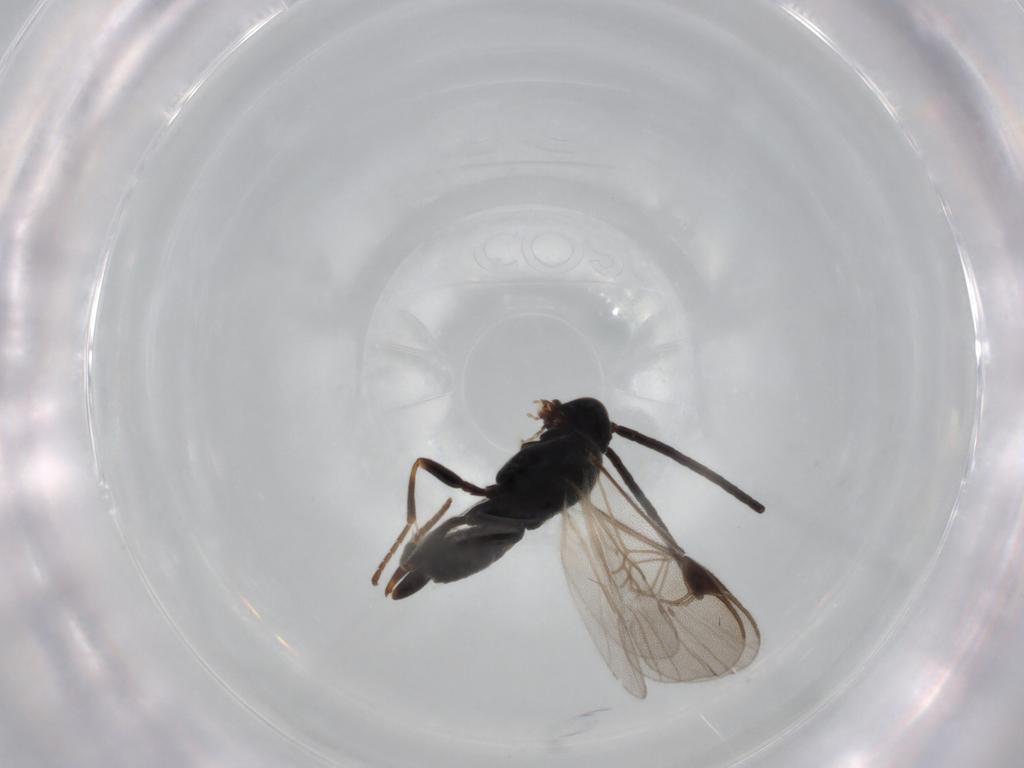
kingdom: Animalia
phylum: Arthropoda
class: Insecta
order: Hymenoptera
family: Braconidae
